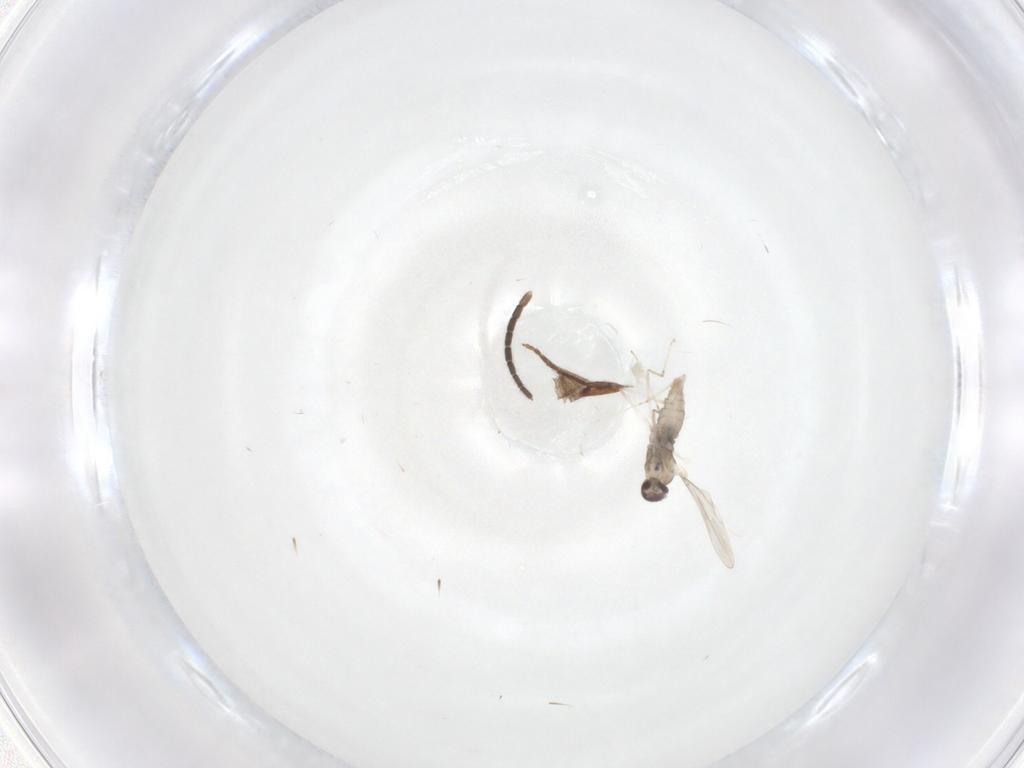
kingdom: Animalia
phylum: Arthropoda
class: Insecta
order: Diptera
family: Cecidomyiidae
